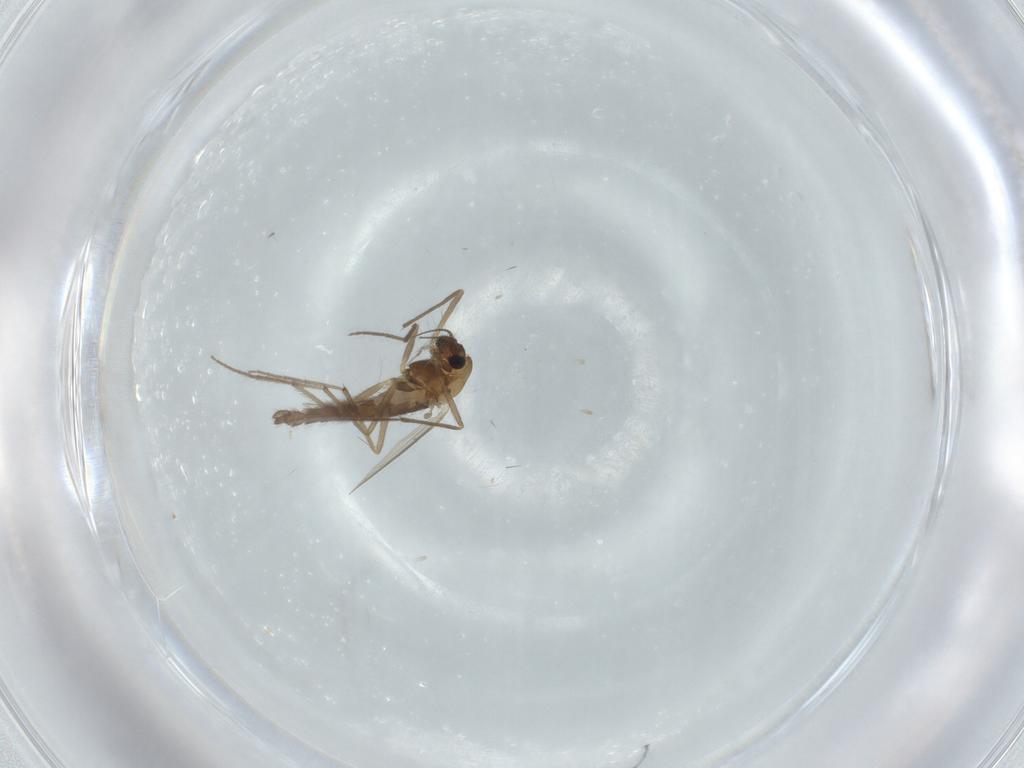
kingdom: Animalia
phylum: Arthropoda
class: Insecta
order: Diptera
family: Chironomidae
